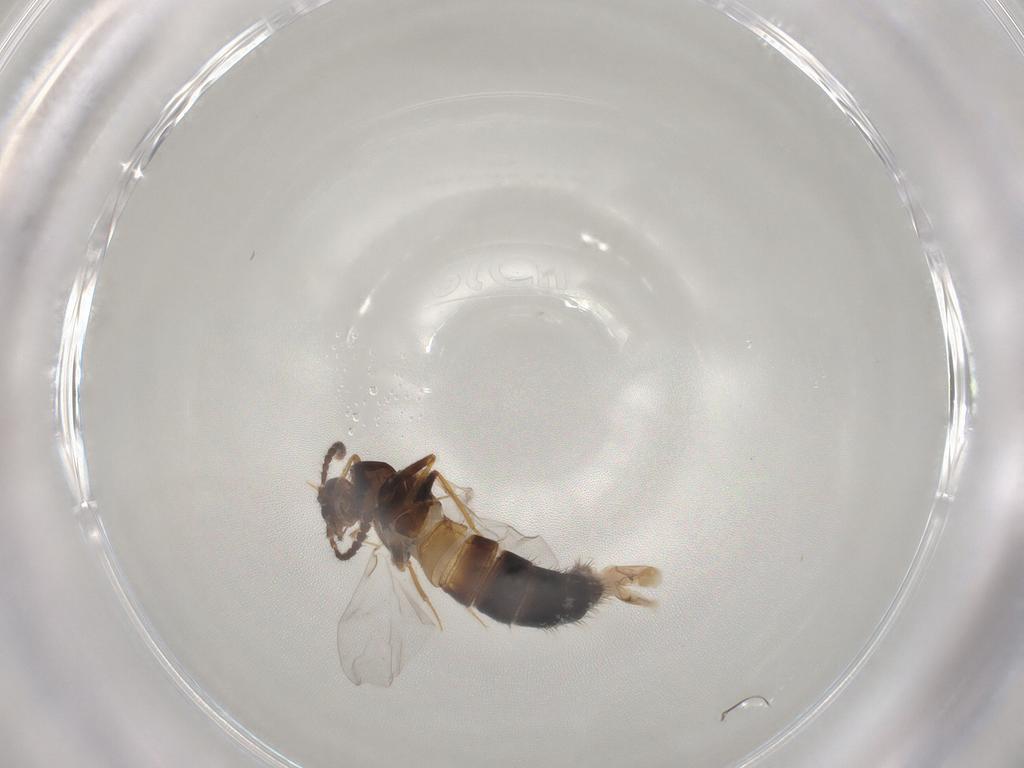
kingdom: Animalia
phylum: Arthropoda
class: Insecta
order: Coleoptera
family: Staphylinidae
